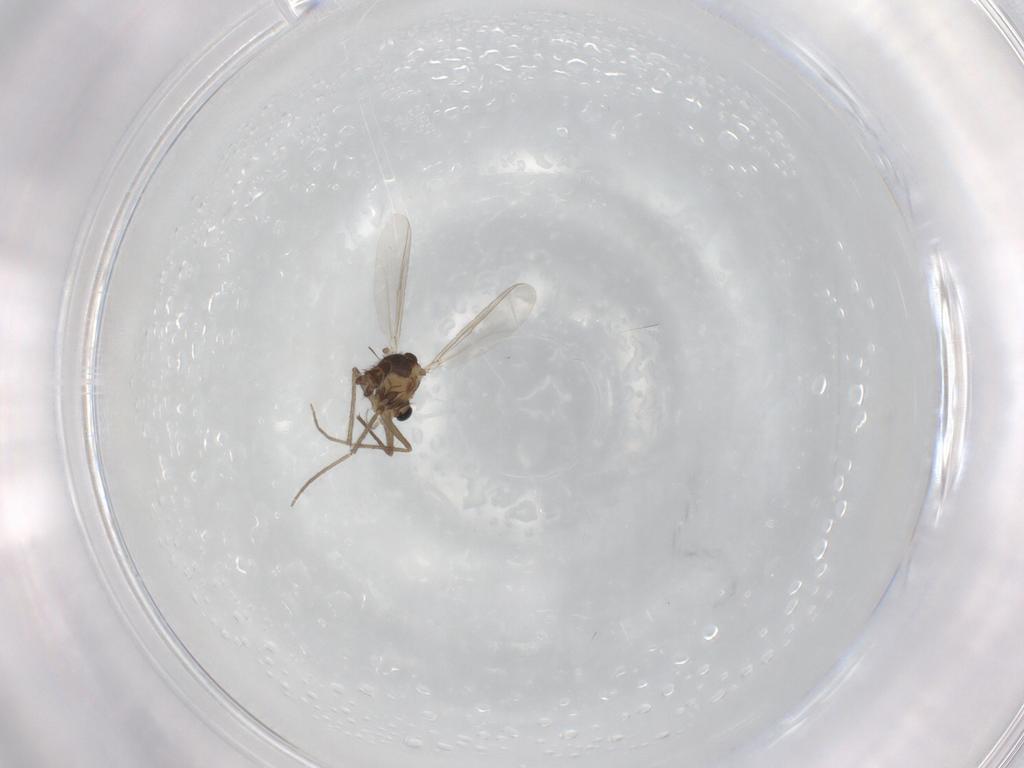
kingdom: Animalia
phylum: Arthropoda
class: Insecta
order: Diptera
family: Chironomidae
